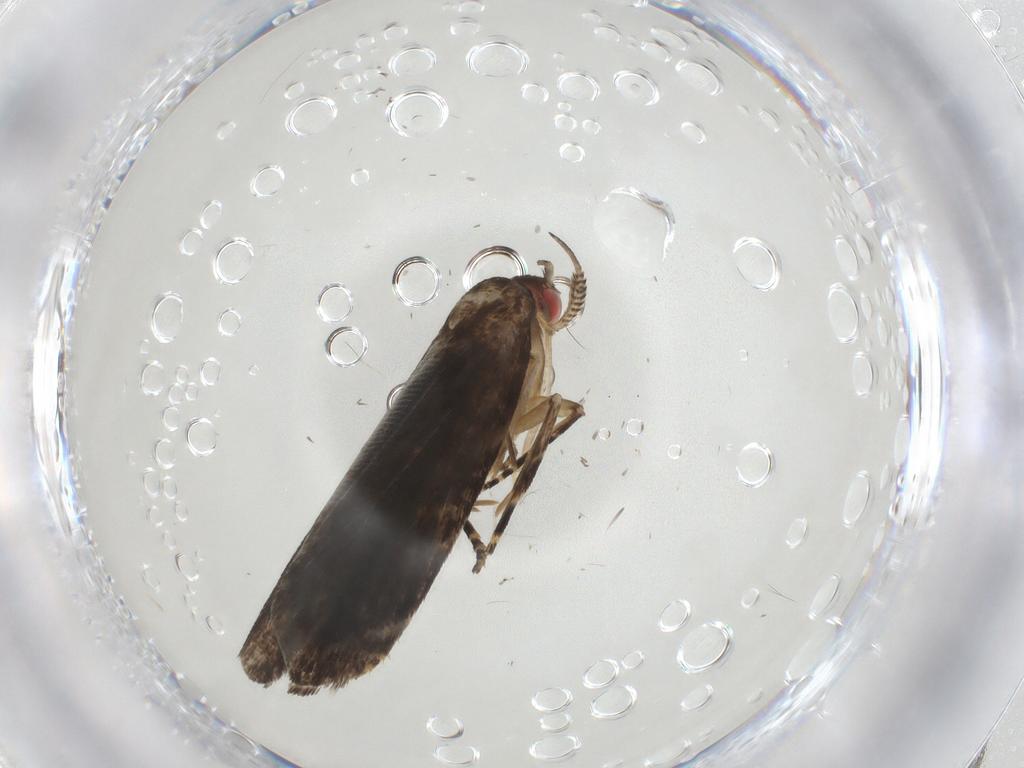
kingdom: Animalia
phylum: Arthropoda
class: Insecta
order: Lepidoptera
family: Gelechiidae
